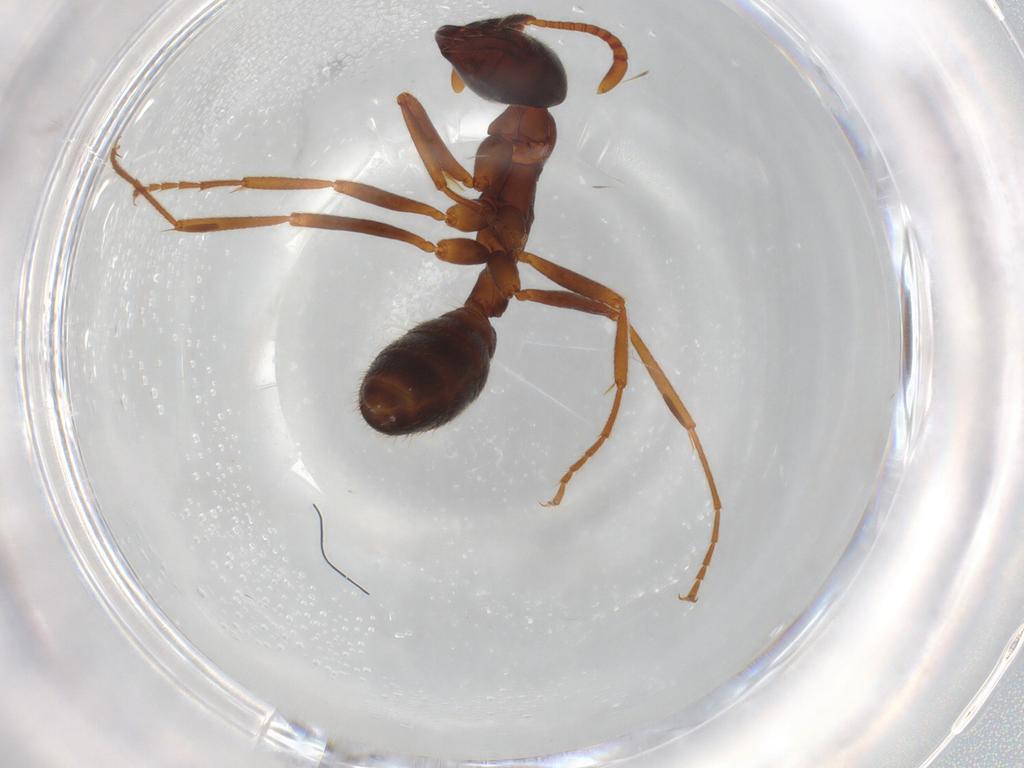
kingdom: Animalia
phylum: Arthropoda
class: Insecta
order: Hymenoptera
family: Formicidae
